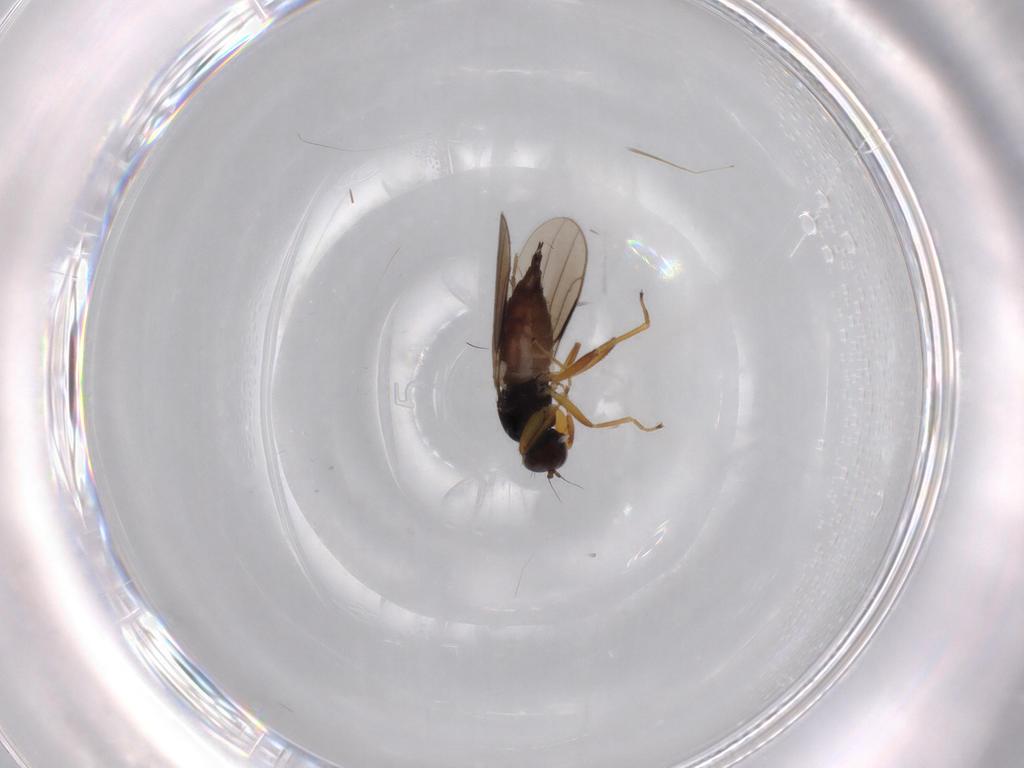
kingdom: Animalia
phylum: Arthropoda
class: Insecta
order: Diptera
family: Hybotidae
